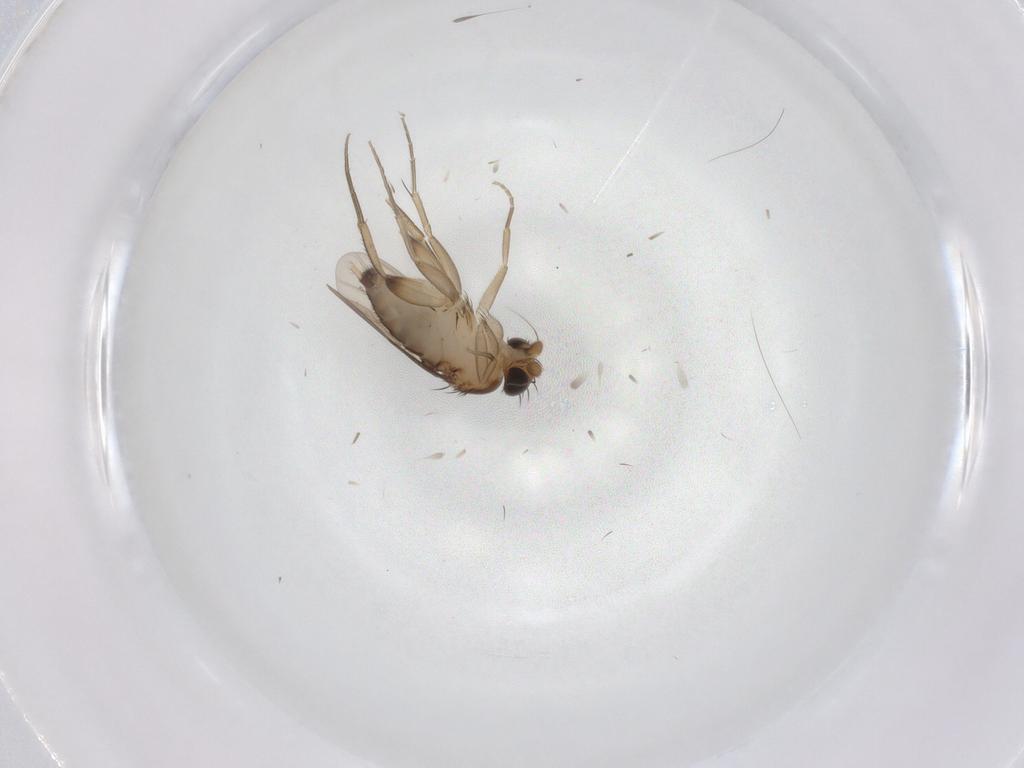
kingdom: Animalia
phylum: Arthropoda
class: Insecta
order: Diptera
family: Phoridae
